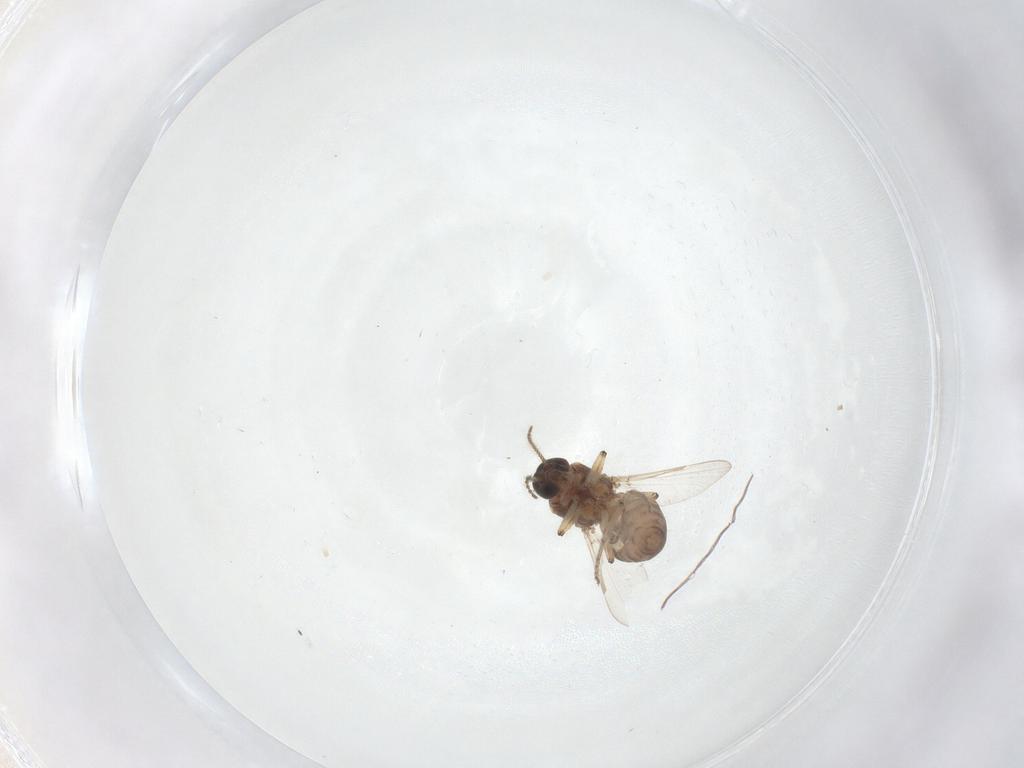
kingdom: Animalia
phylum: Arthropoda
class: Insecta
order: Diptera
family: Ceratopogonidae
